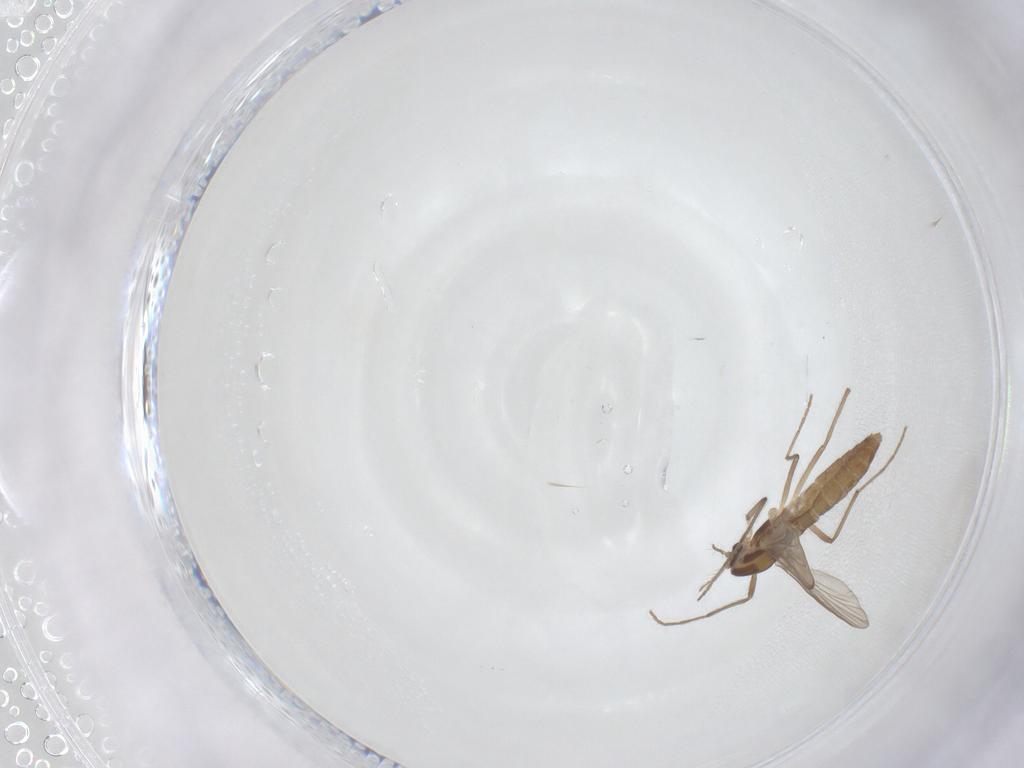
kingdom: Animalia
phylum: Arthropoda
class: Insecta
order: Diptera
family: Chironomidae
